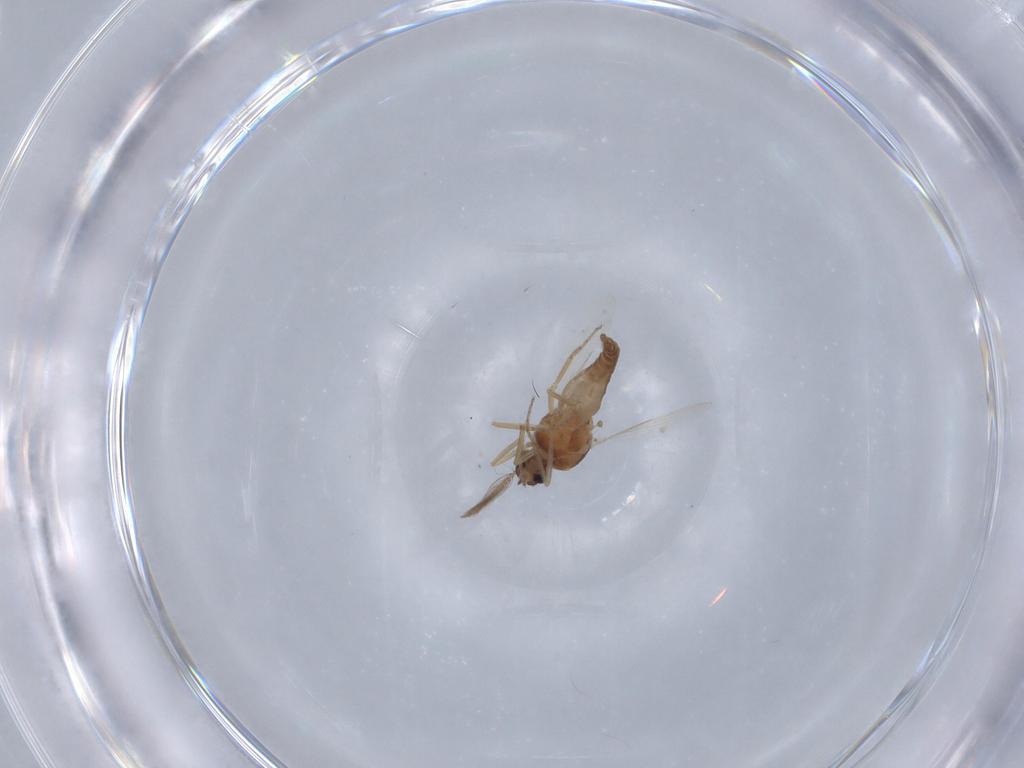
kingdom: Animalia
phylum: Arthropoda
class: Insecta
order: Diptera
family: Ceratopogonidae
